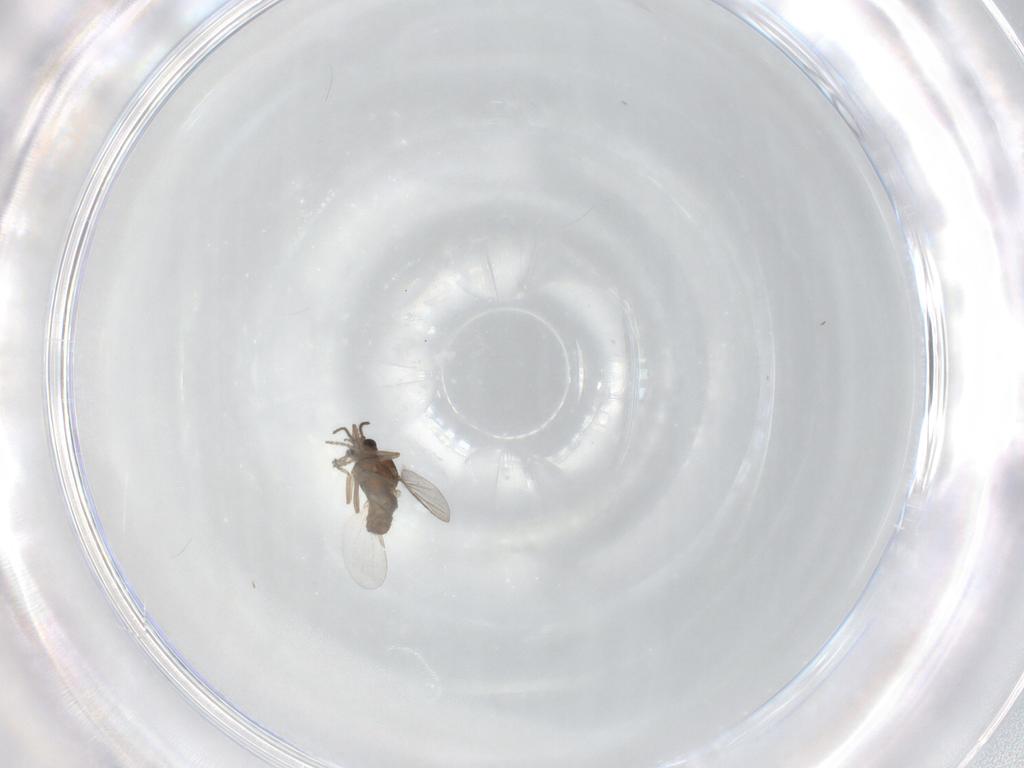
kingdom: Animalia
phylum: Arthropoda
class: Insecta
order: Diptera
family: Ceratopogonidae
